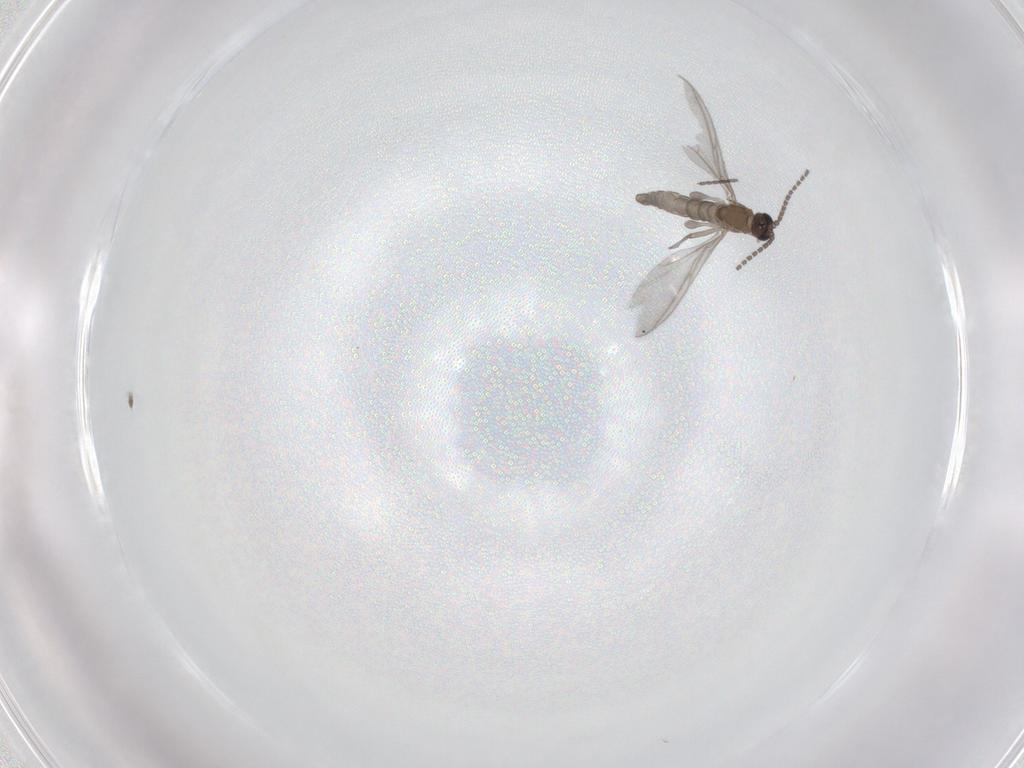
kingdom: Animalia
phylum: Arthropoda
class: Insecta
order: Diptera
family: Sciaridae
